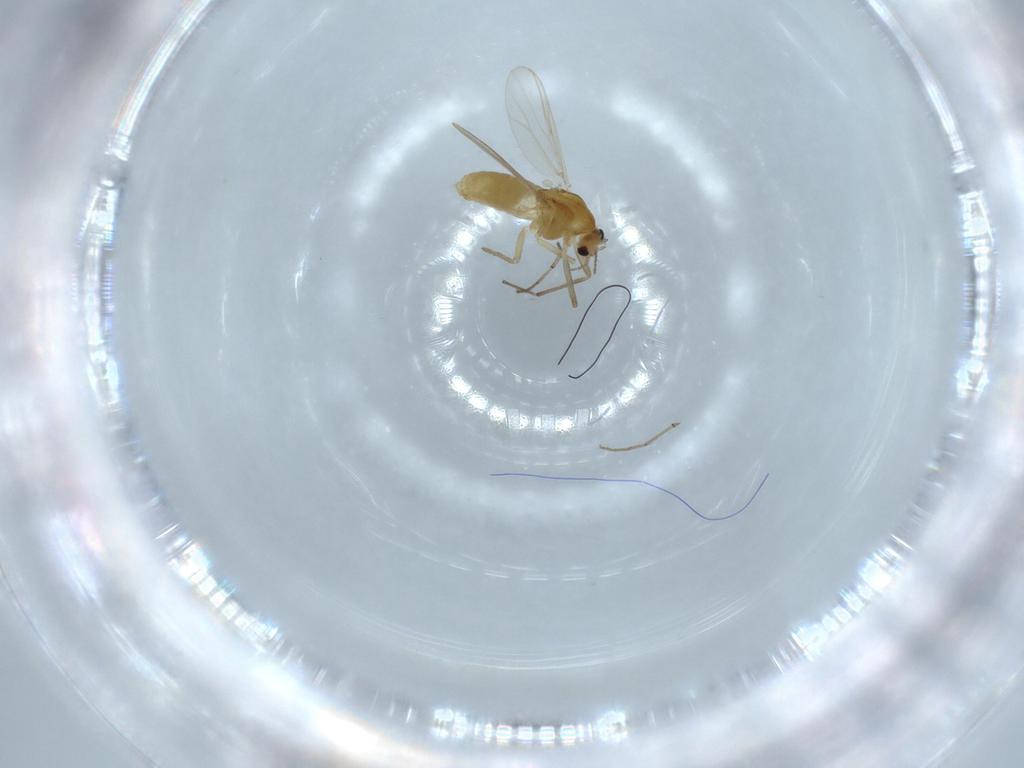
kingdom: Animalia
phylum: Arthropoda
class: Insecta
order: Diptera
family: Chironomidae
